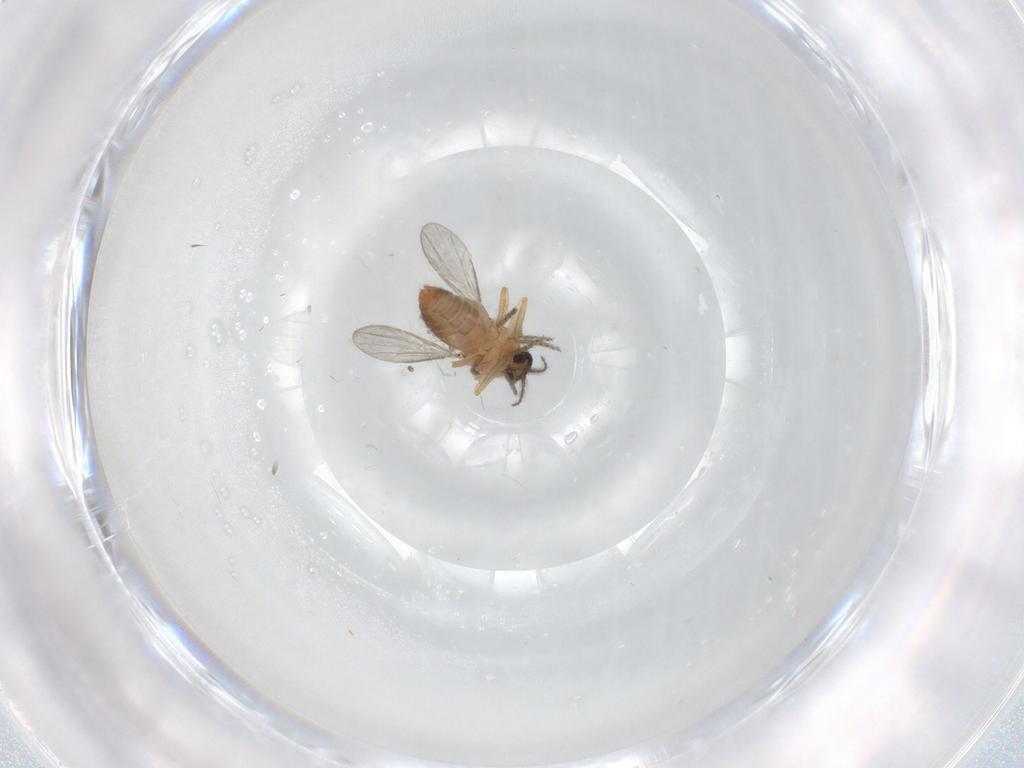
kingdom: Animalia
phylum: Arthropoda
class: Insecta
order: Diptera
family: Ceratopogonidae
